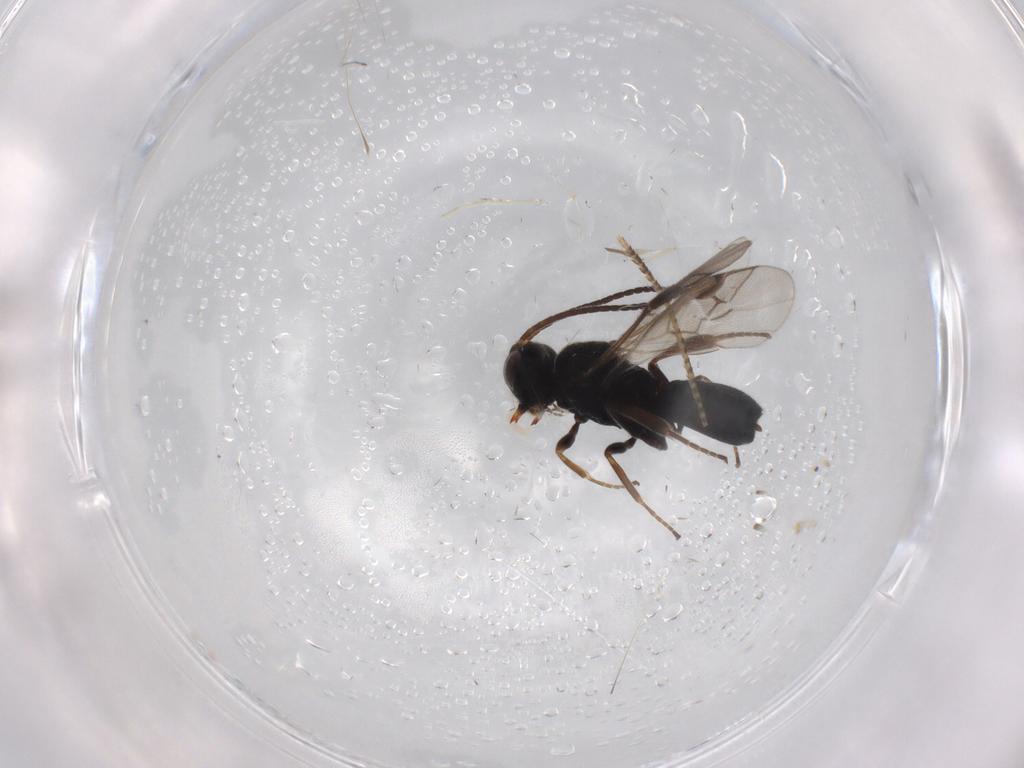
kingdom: Animalia
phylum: Arthropoda
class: Insecta
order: Hymenoptera
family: Braconidae
